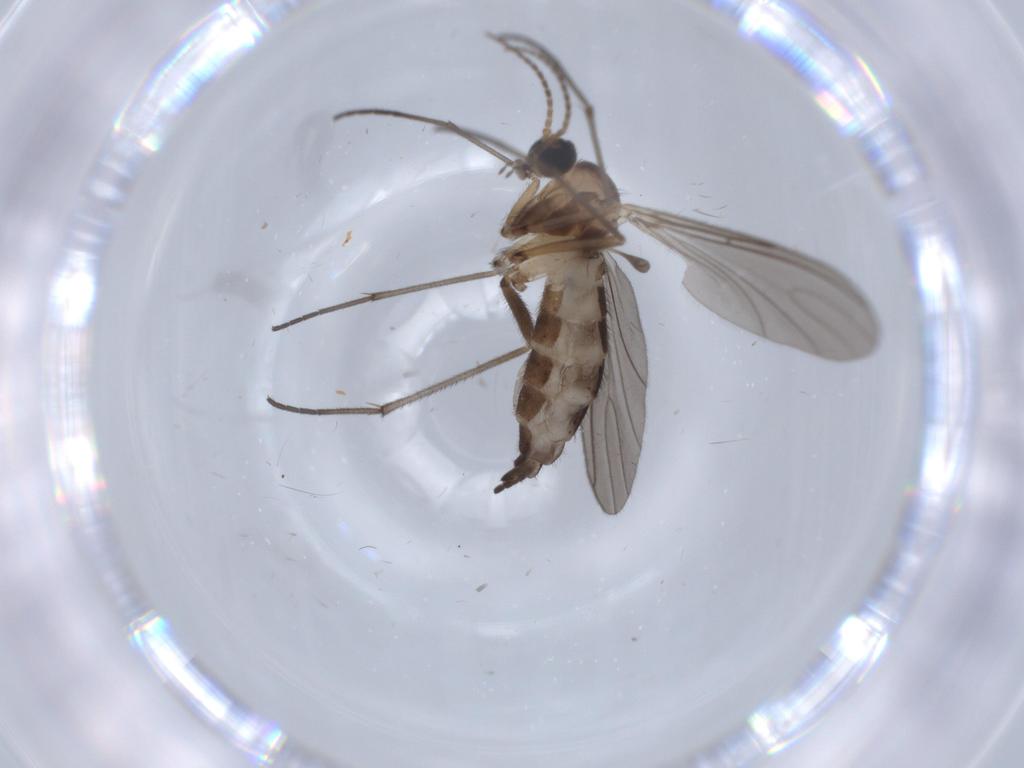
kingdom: Animalia
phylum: Arthropoda
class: Insecta
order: Diptera
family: Sciaridae
